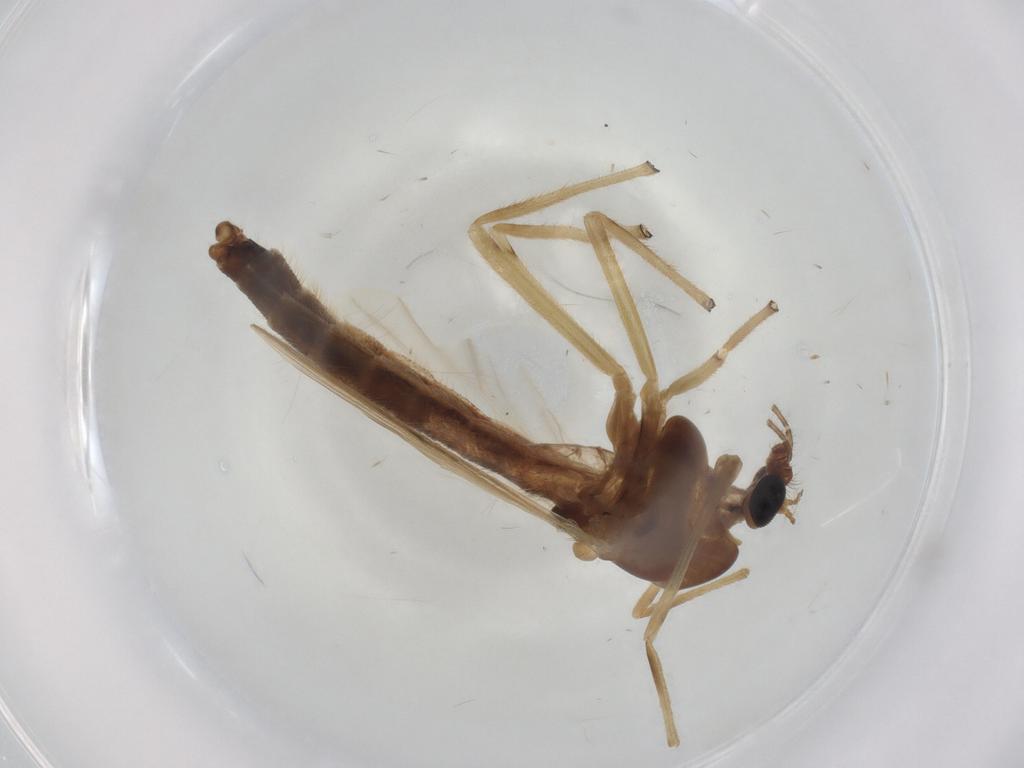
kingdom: Animalia
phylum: Arthropoda
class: Insecta
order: Diptera
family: Chironomidae
